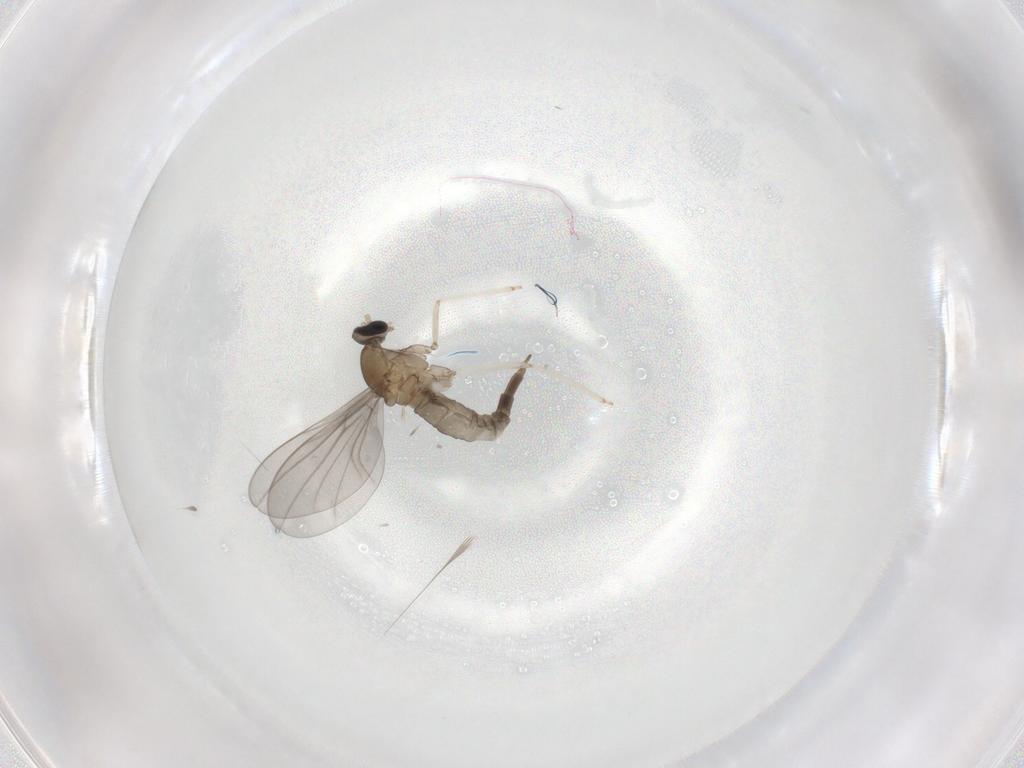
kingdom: Animalia
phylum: Arthropoda
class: Insecta
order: Diptera
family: Cecidomyiidae
